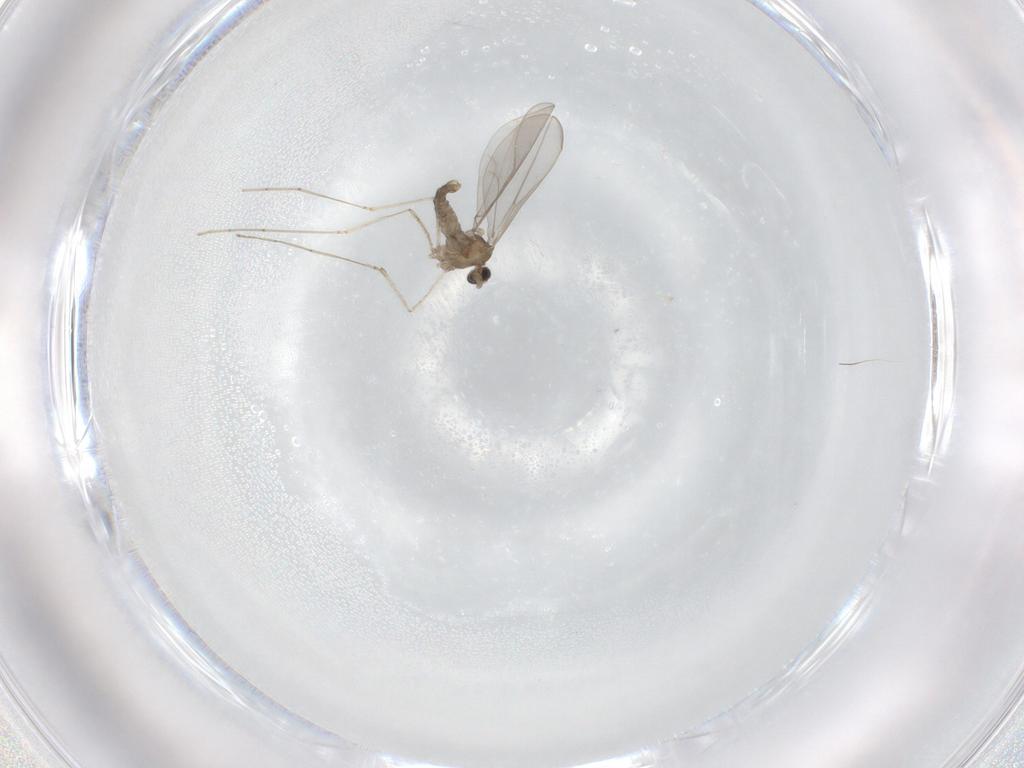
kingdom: Animalia
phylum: Arthropoda
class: Insecta
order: Diptera
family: Cecidomyiidae
